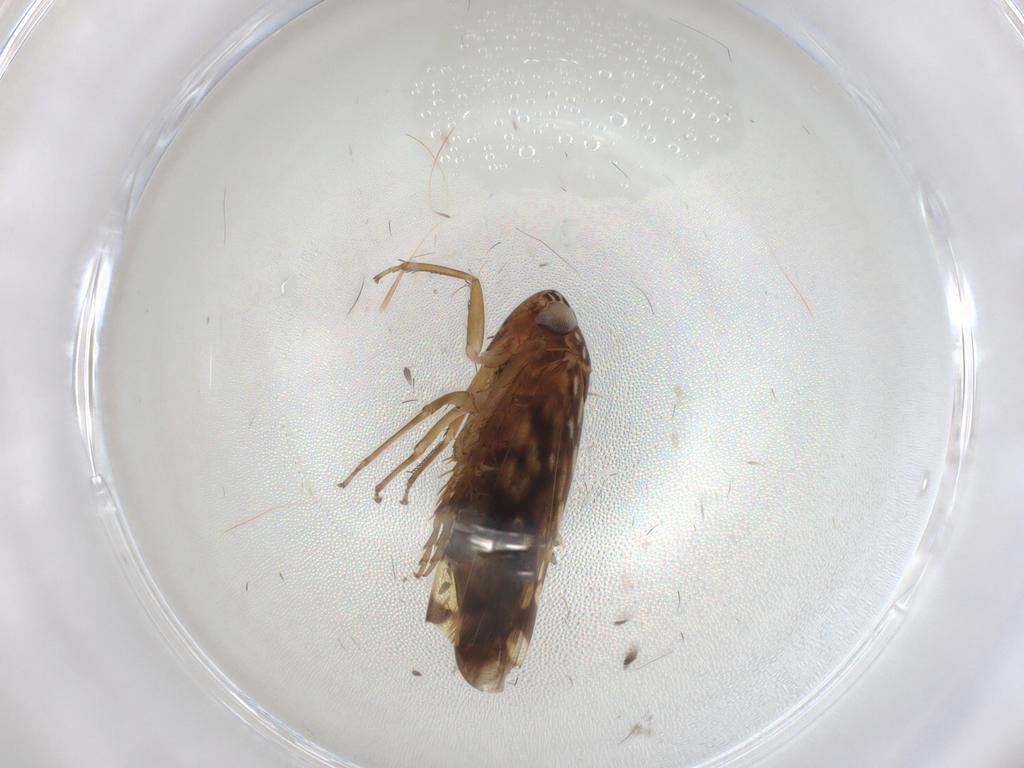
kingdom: Animalia
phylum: Arthropoda
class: Insecta
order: Hemiptera
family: Cicadellidae
